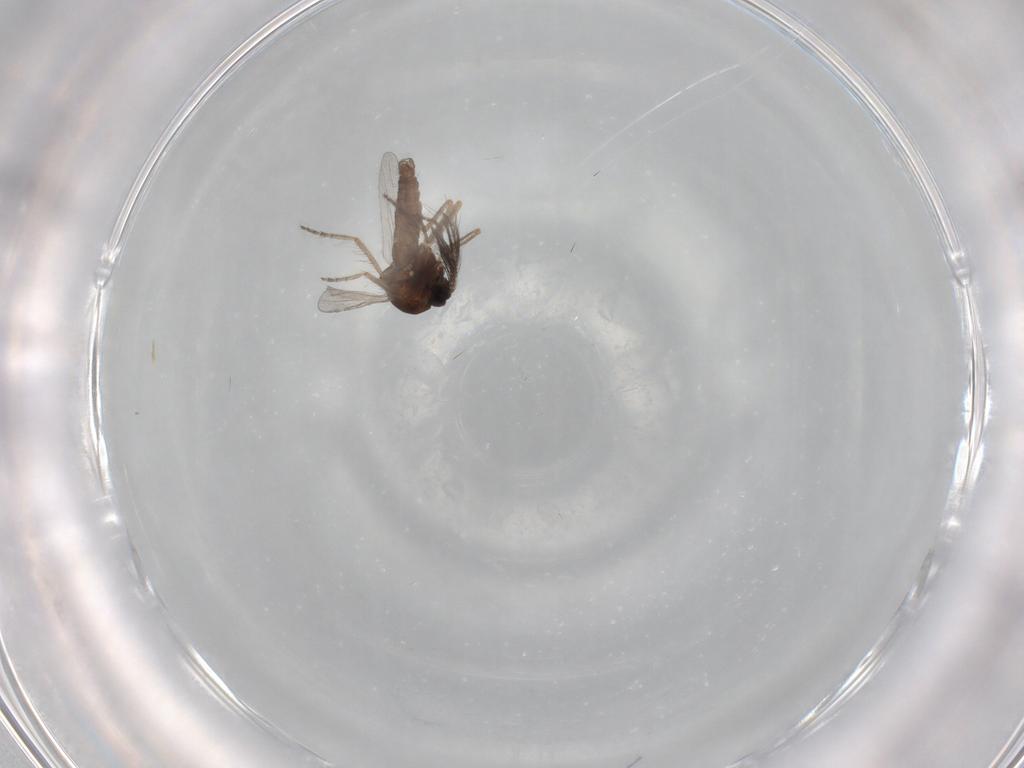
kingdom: Animalia
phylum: Arthropoda
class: Insecta
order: Diptera
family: Ceratopogonidae
